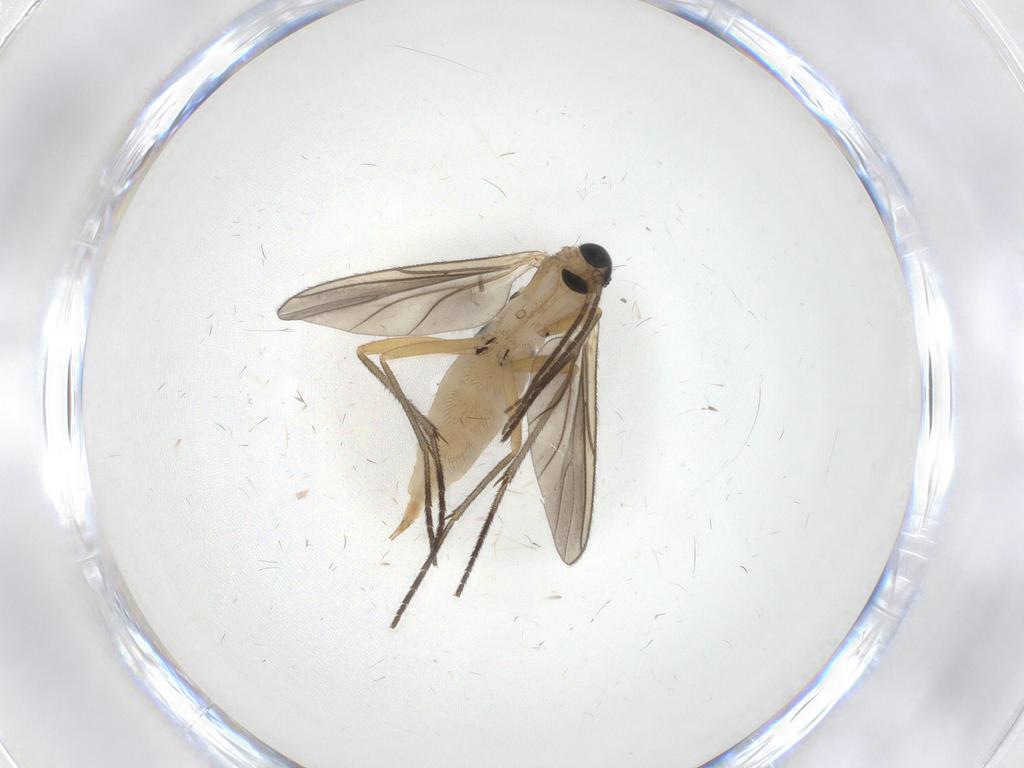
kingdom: Animalia
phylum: Arthropoda
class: Insecta
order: Diptera
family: Sciaridae
